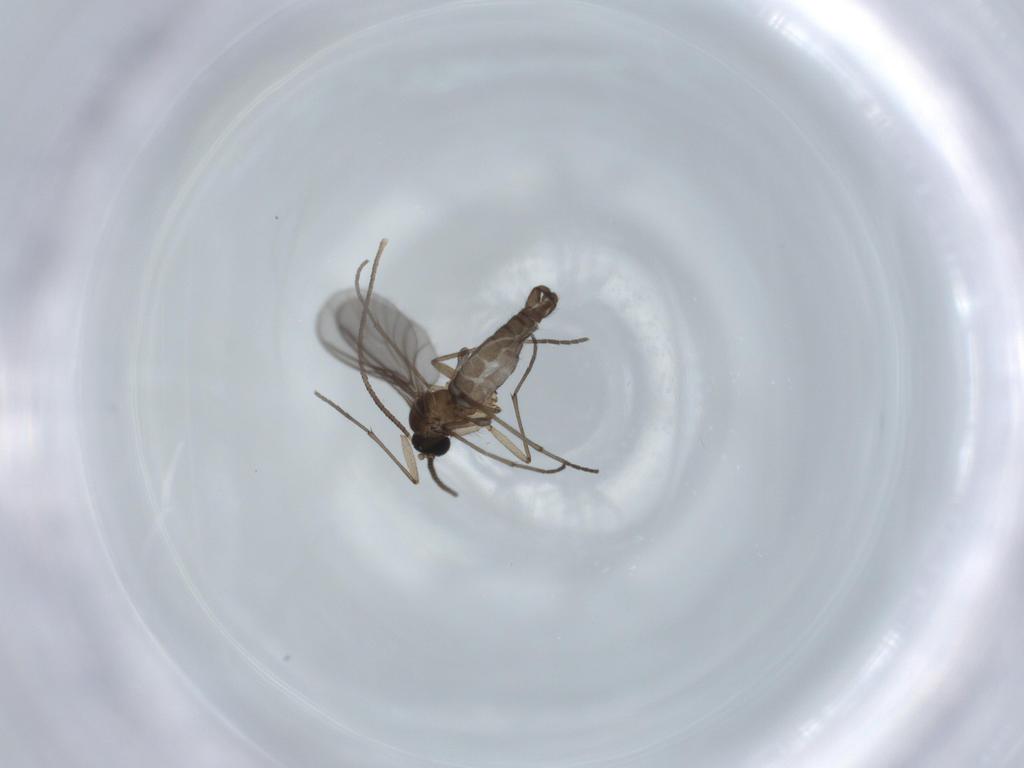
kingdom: Animalia
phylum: Arthropoda
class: Insecta
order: Diptera
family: Sciaridae
